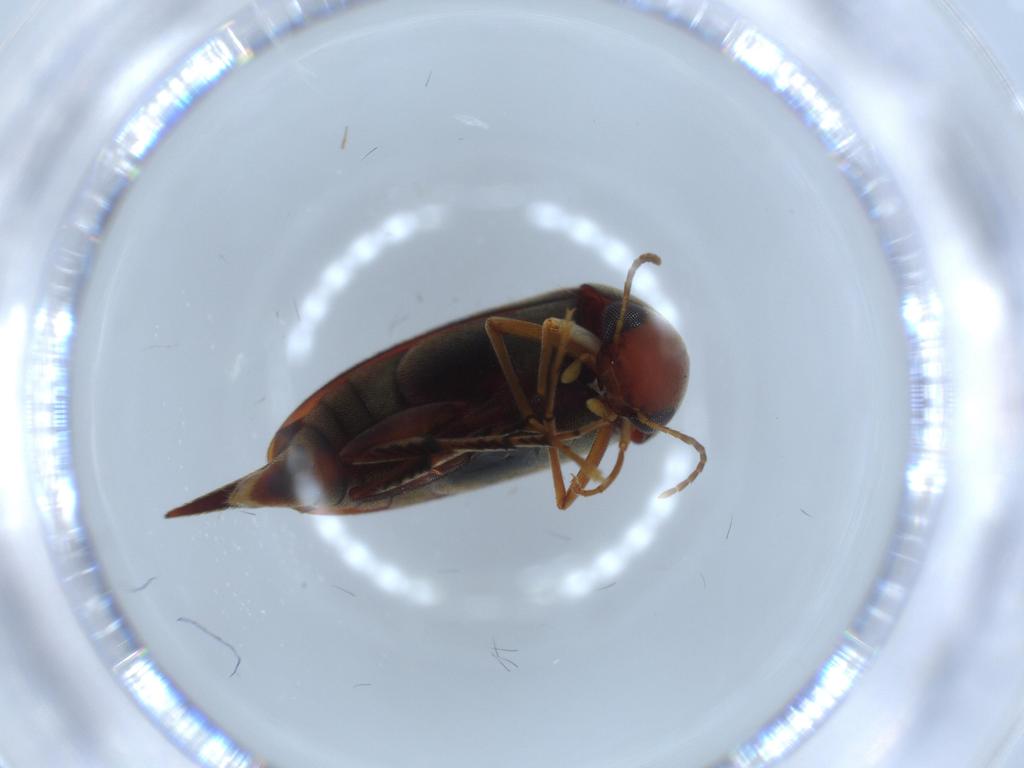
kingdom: Animalia
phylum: Arthropoda
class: Insecta
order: Coleoptera
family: Mordellidae
